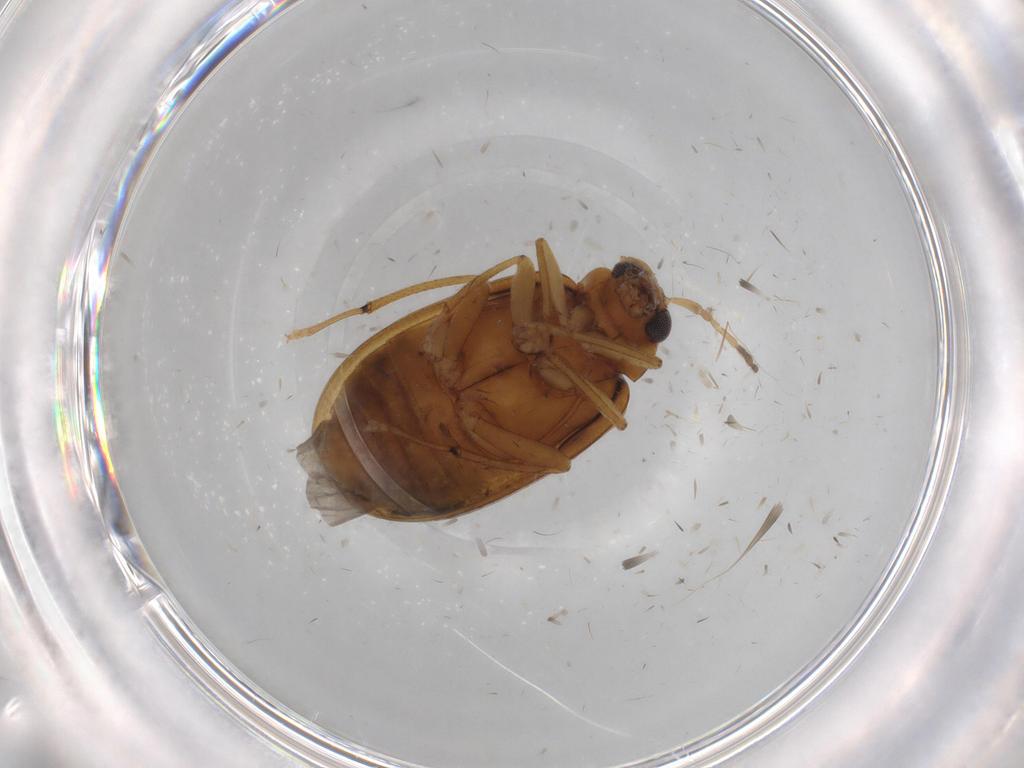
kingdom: Animalia
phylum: Arthropoda
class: Insecta
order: Coleoptera
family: Chrysomelidae
